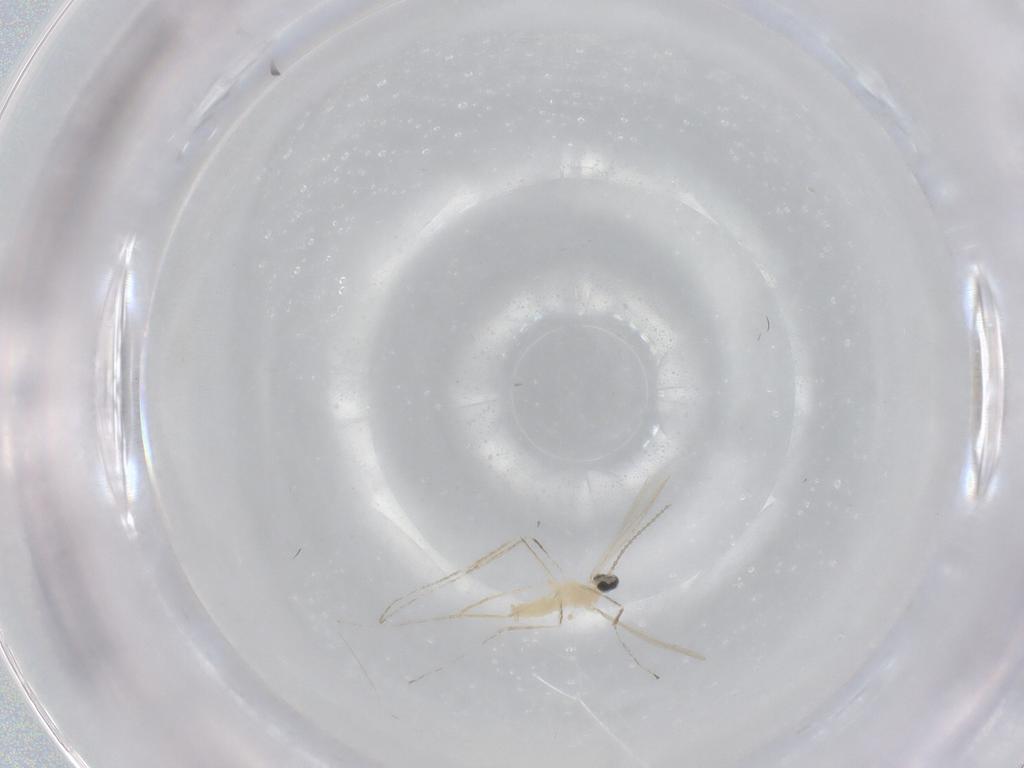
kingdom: Animalia
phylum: Arthropoda
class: Insecta
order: Diptera
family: Cecidomyiidae
